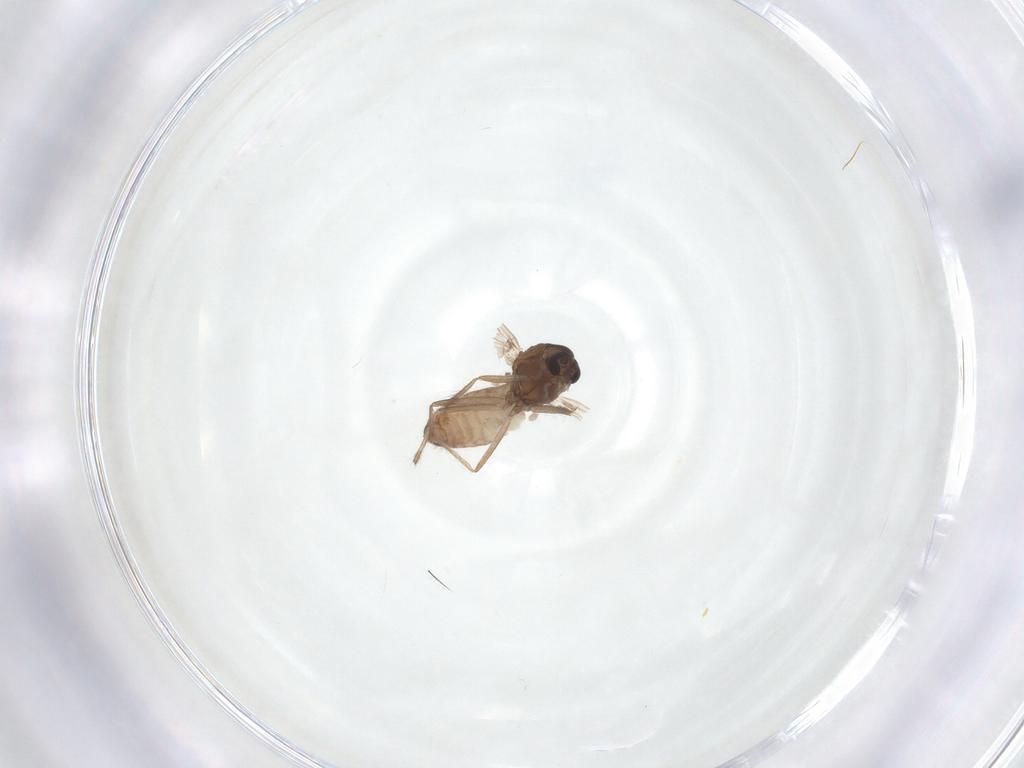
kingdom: Animalia
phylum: Arthropoda
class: Insecta
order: Diptera
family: Chironomidae
